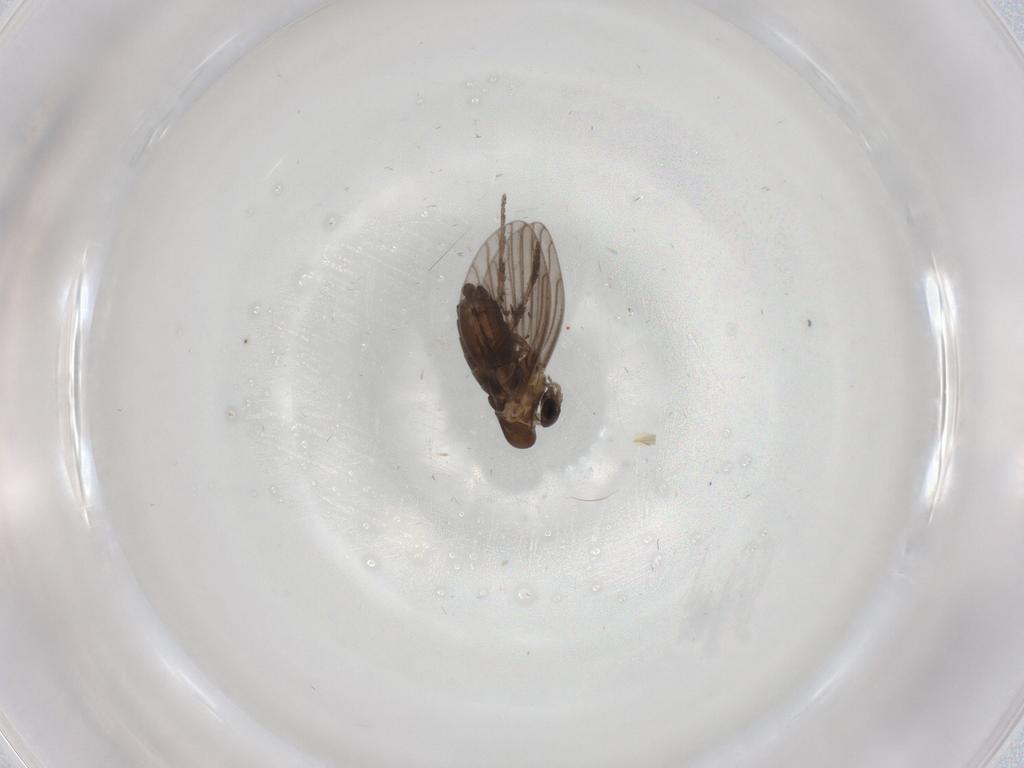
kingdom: Animalia
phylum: Arthropoda
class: Insecta
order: Diptera
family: Psychodidae
